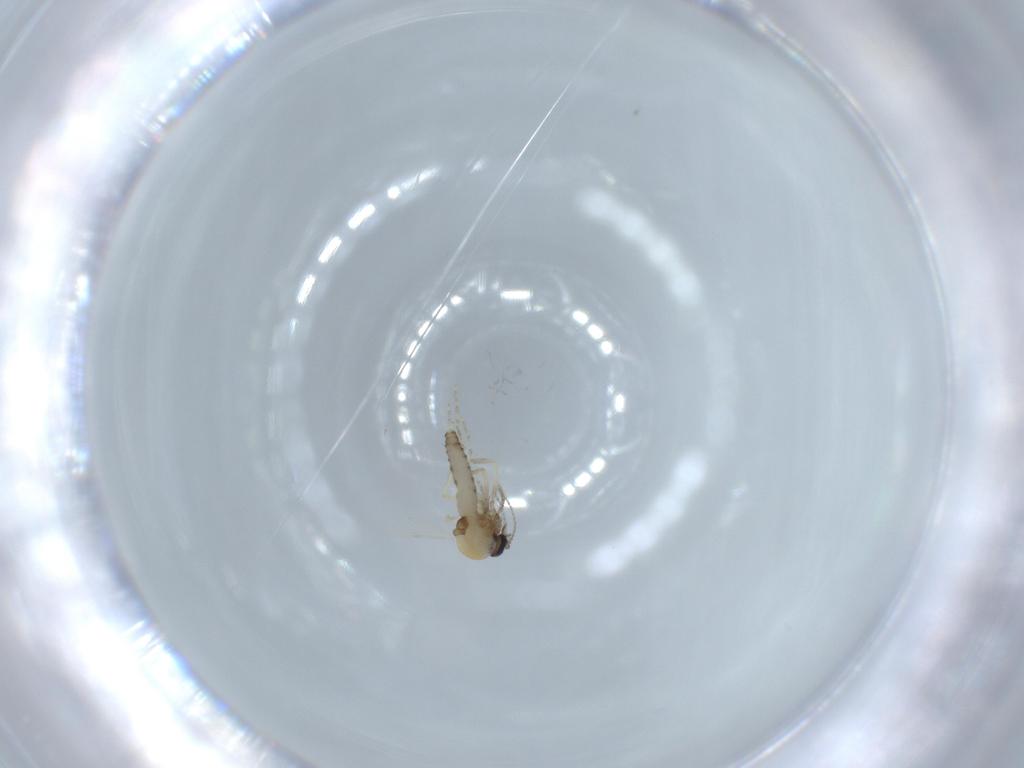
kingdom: Animalia
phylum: Arthropoda
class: Insecta
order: Diptera
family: Ceratopogonidae
